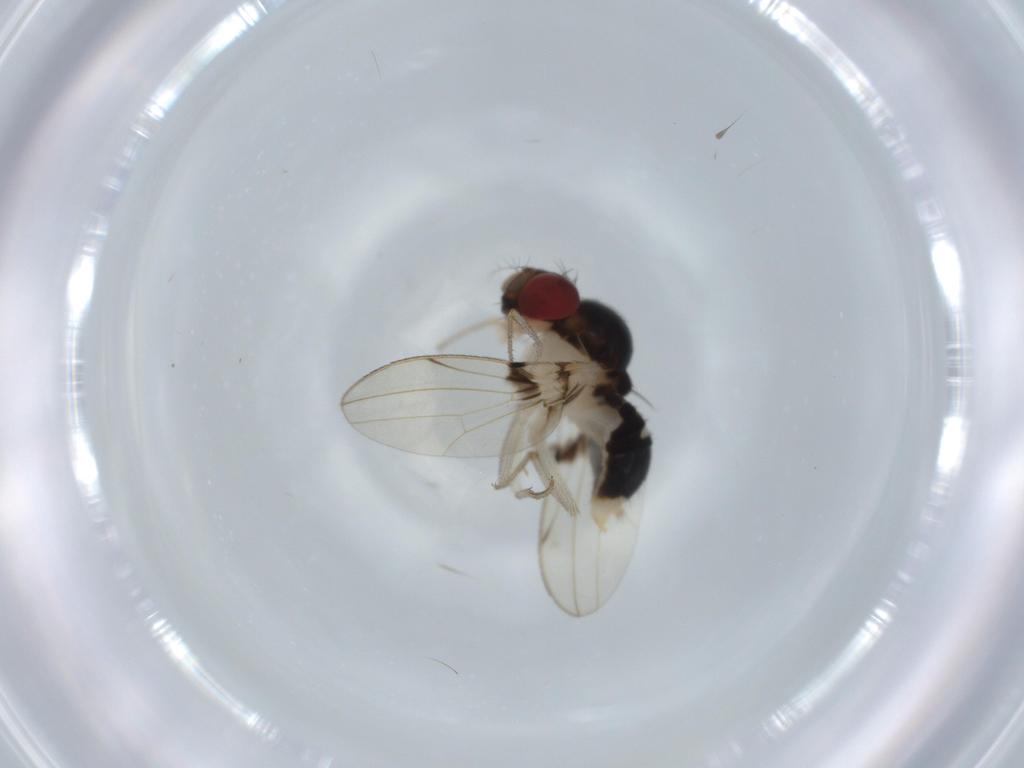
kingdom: Animalia
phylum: Arthropoda
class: Insecta
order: Diptera
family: Drosophilidae
